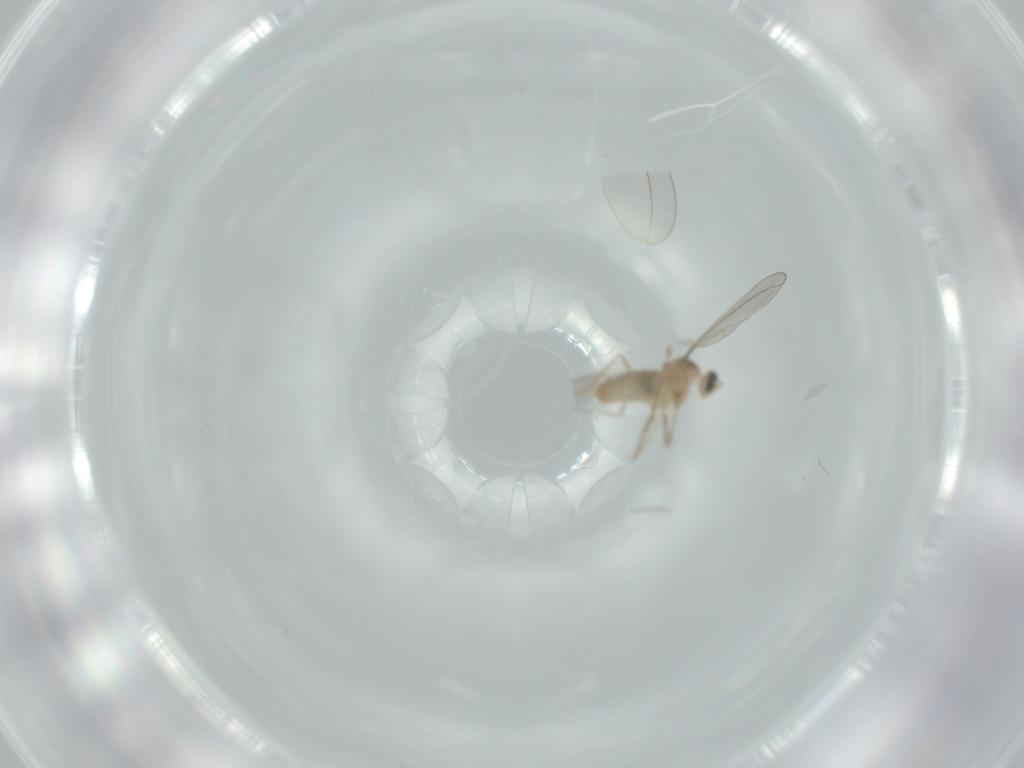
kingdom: Animalia
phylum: Arthropoda
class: Insecta
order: Diptera
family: Cecidomyiidae
